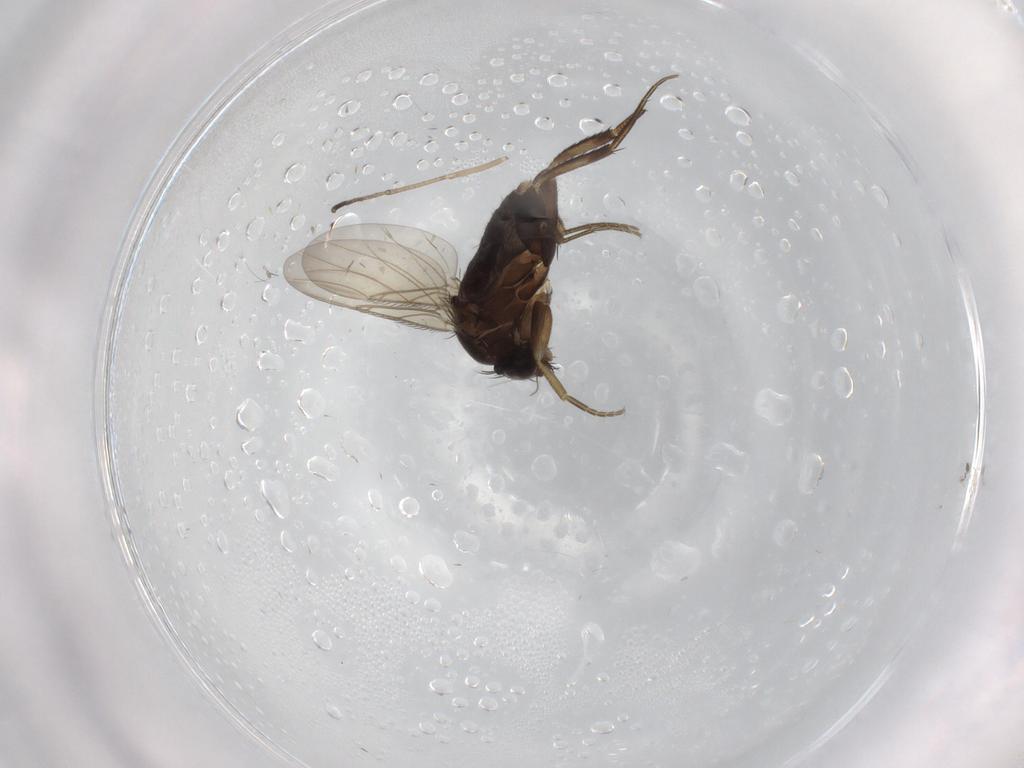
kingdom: Animalia
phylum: Arthropoda
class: Insecta
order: Diptera
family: Phoridae
